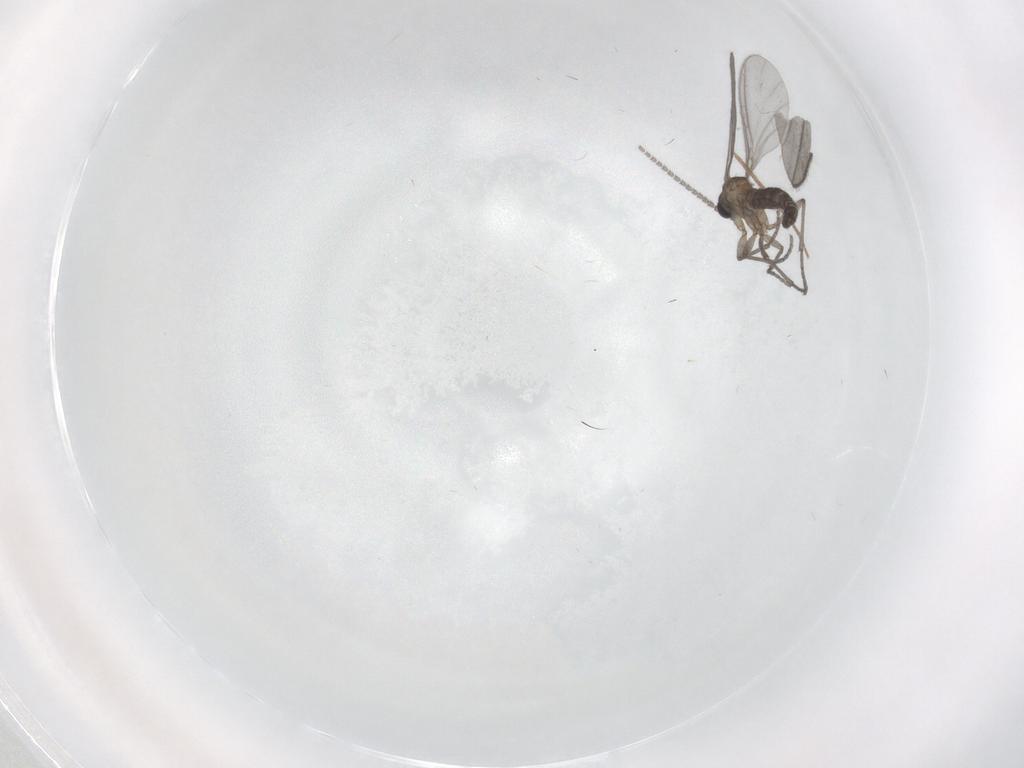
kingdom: Animalia
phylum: Arthropoda
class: Insecta
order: Diptera
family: Sciaridae
